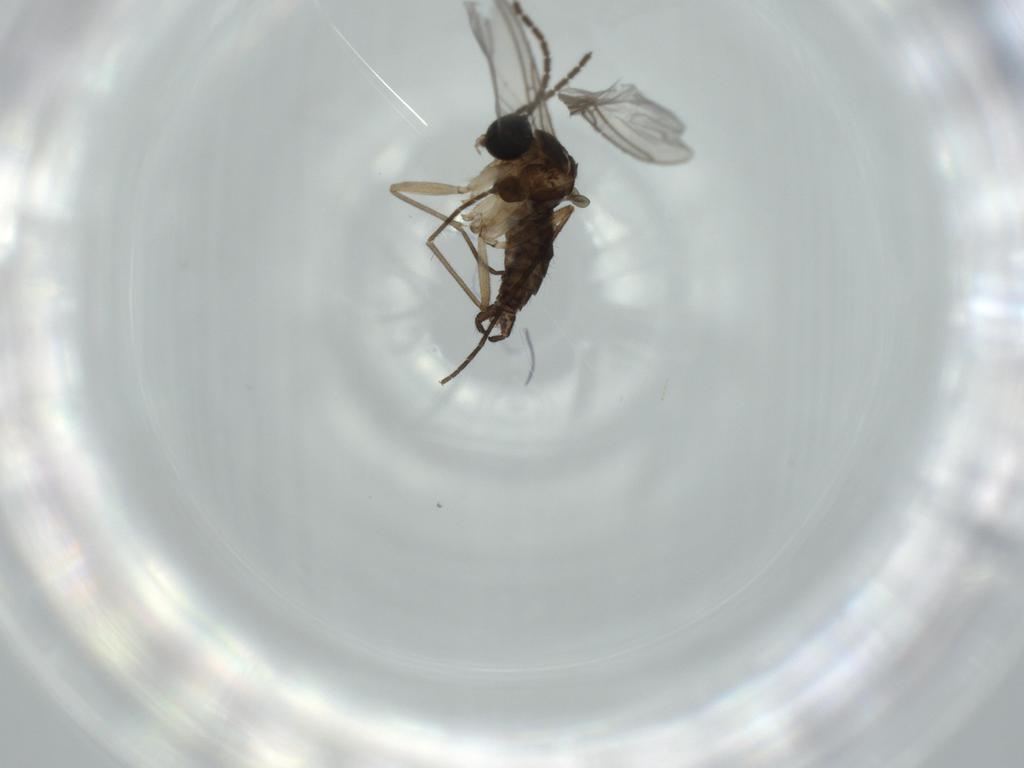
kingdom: Animalia
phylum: Arthropoda
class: Insecta
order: Diptera
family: Sciaridae
